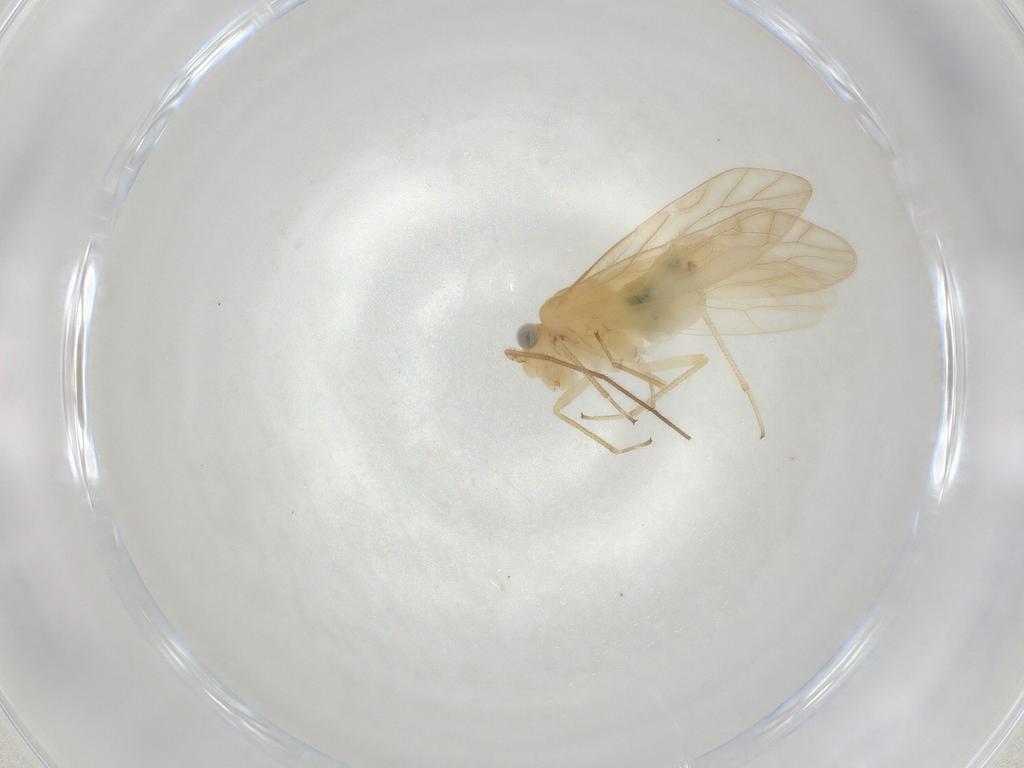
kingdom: Animalia
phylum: Arthropoda
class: Insecta
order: Psocodea
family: Caeciliusidae
